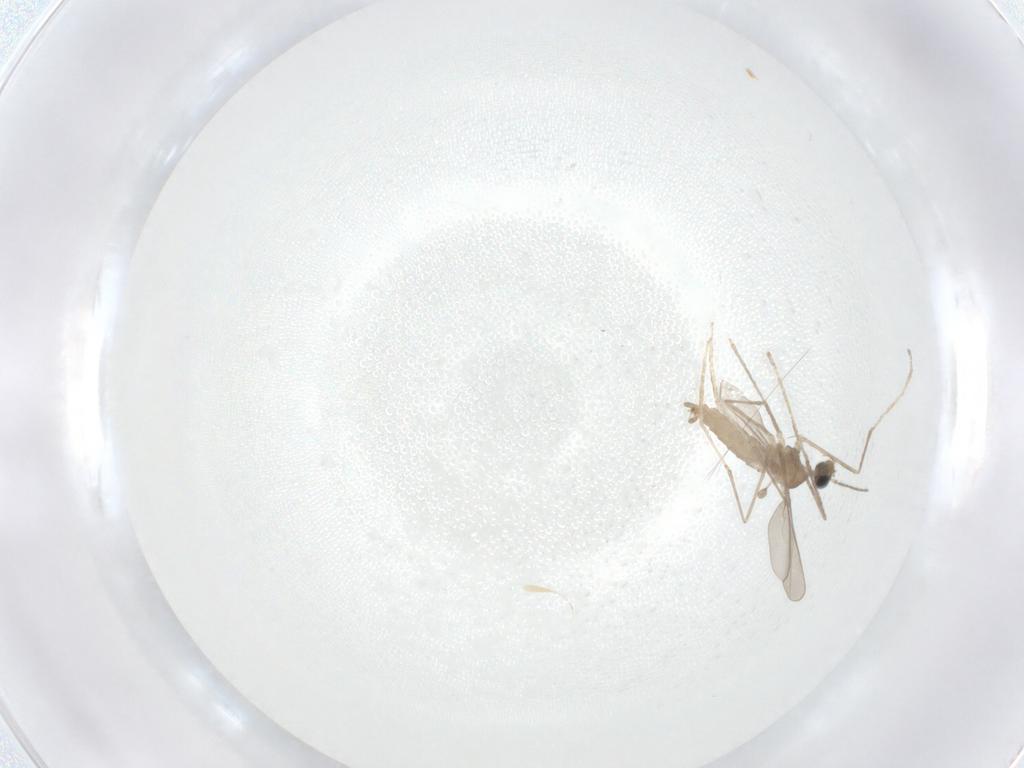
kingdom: Animalia
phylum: Arthropoda
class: Insecta
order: Diptera
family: Cecidomyiidae
